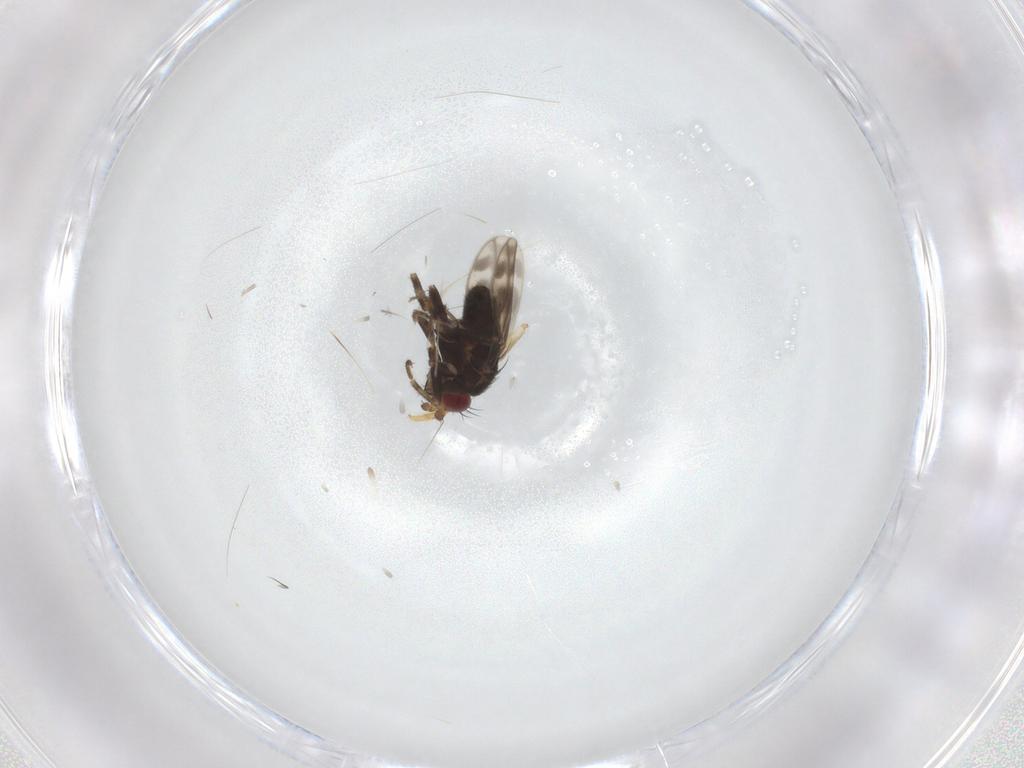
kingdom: Animalia
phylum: Arthropoda
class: Insecta
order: Diptera
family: Sphaeroceridae
